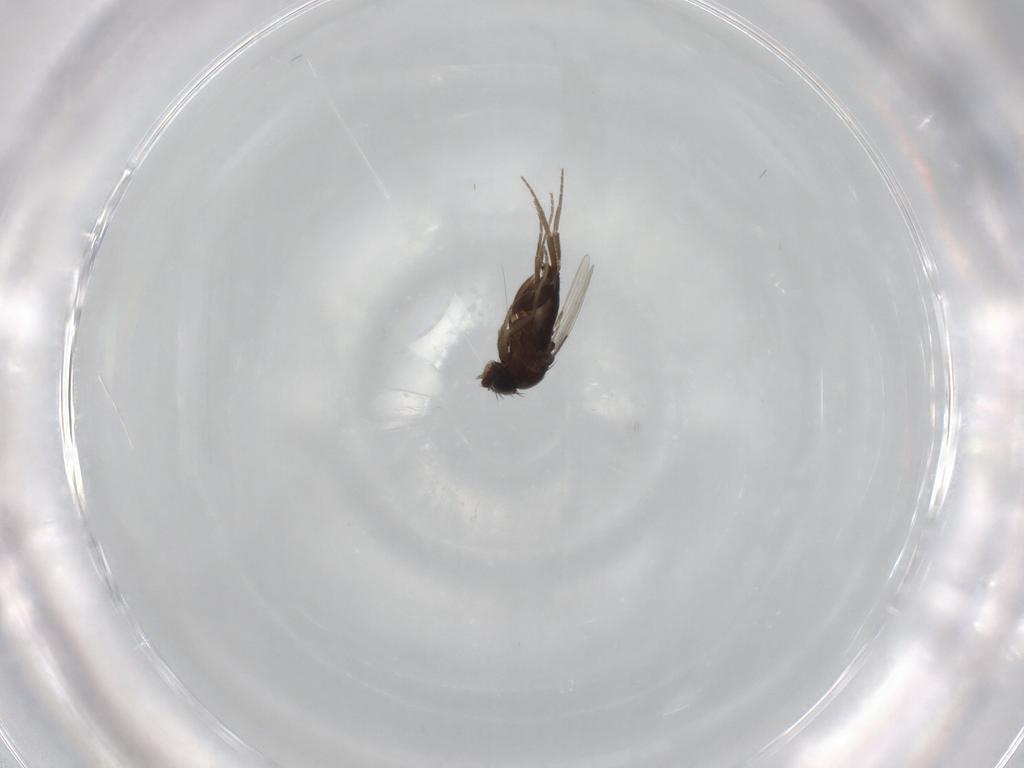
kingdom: Animalia
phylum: Arthropoda
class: Insecta
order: Diptera
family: Phoridae
